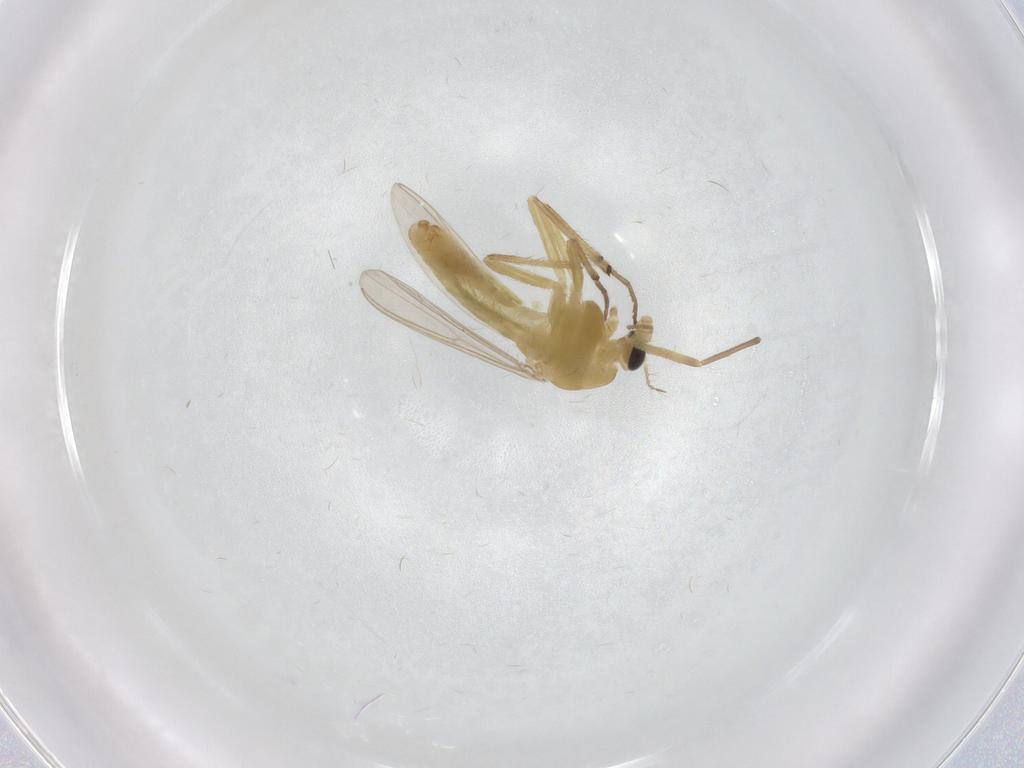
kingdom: Animalia
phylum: Arthropoda
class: Insecta
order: Diptera
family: Chironomidae
